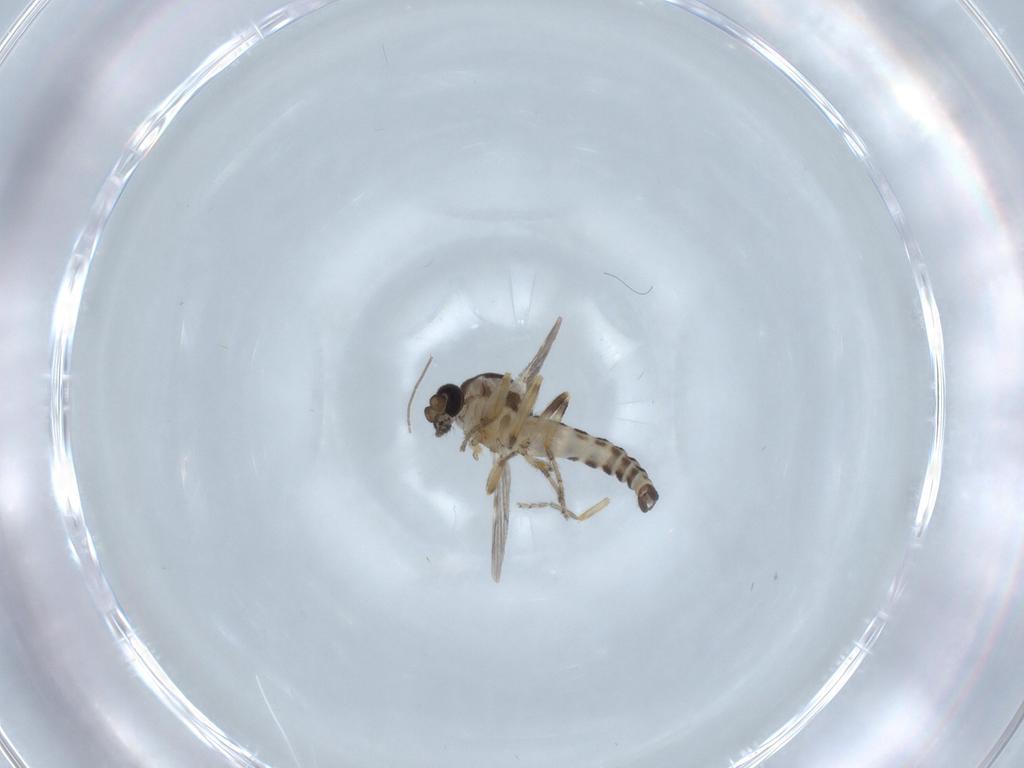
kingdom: Animalia
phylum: Arthropoda
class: Insecta
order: Diptera
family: Ceratopogonidae
